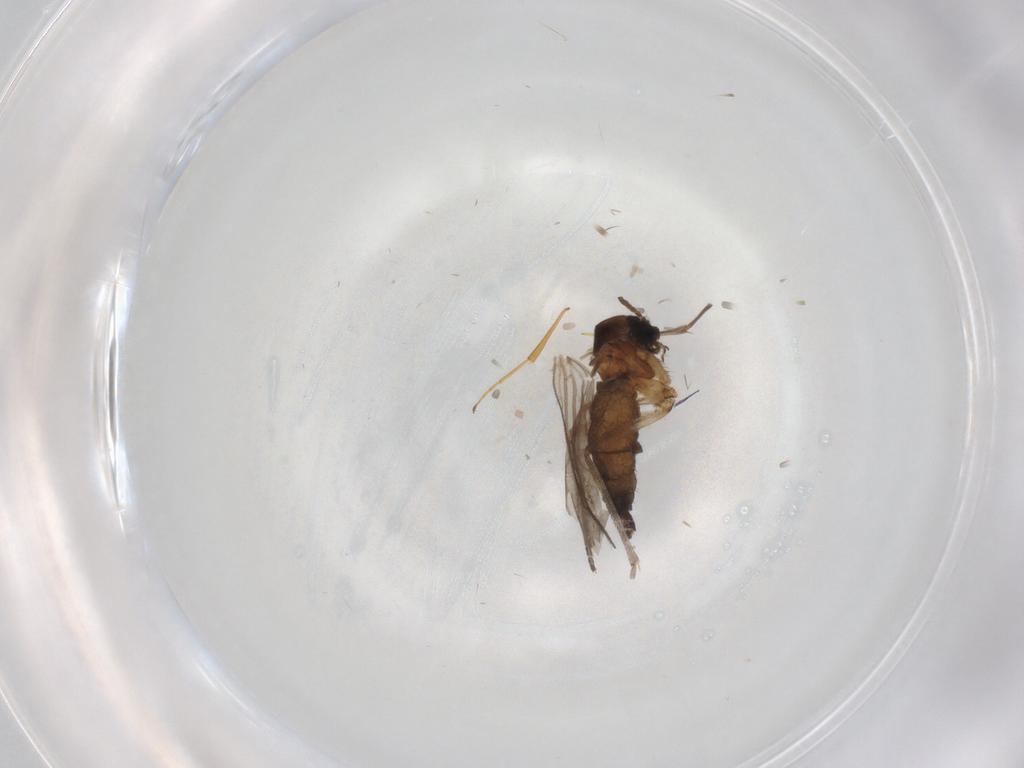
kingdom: Animalia
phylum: Arthropoda
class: Insecta
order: Diptera
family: Sciaridae
